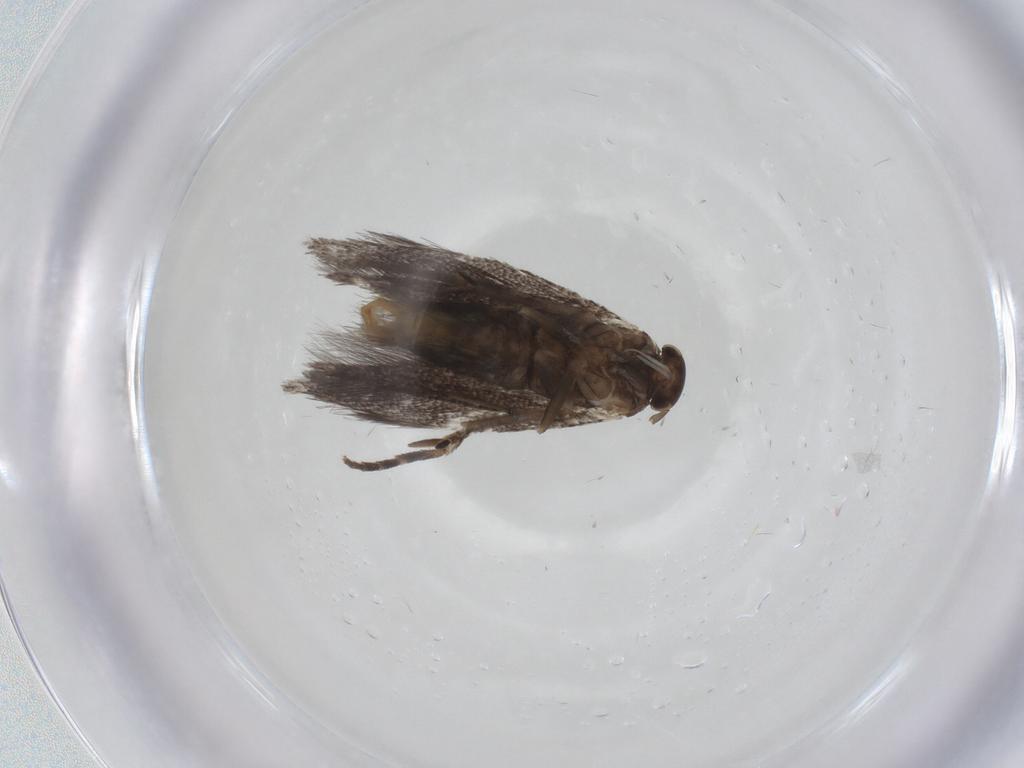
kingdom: Animalia
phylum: Arthropoda
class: Insecta
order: Lepidoptera
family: Elachistidae
